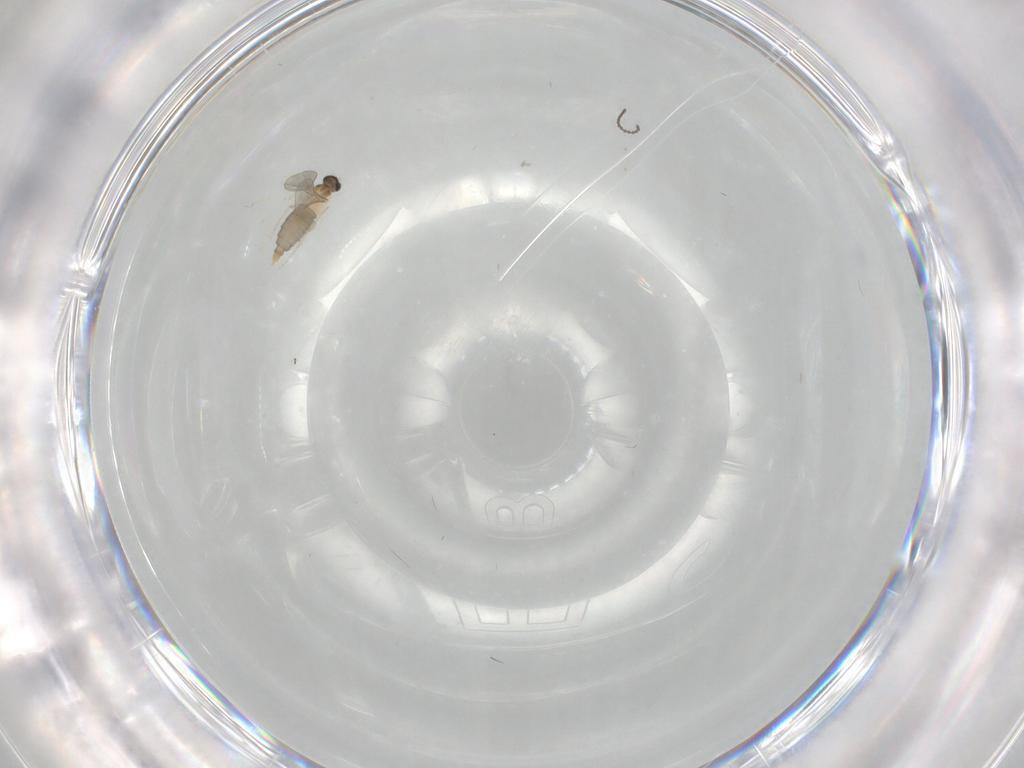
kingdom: Animalia
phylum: Arthropoda
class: Insecta
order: Diptera
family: Cecidomyiidae
